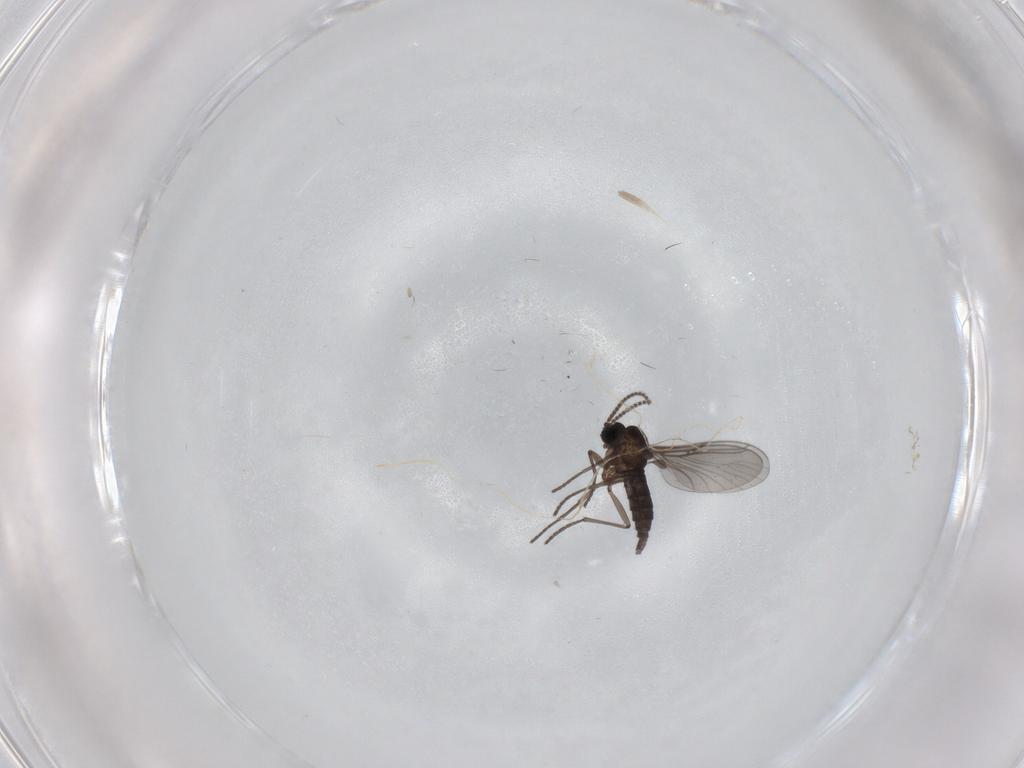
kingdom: Animalia
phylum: Arthropoda
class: Insecta
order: Diptera
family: Sciaridae
